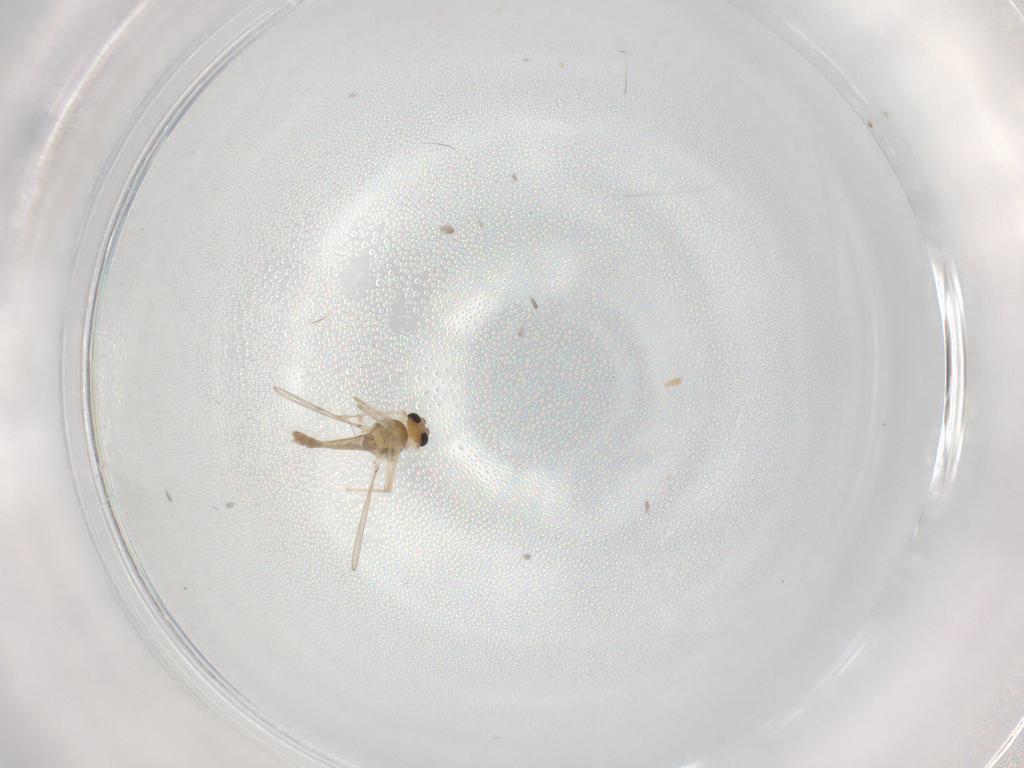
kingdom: Animalia
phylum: Arthropoda
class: Insecta
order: Diptera
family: Chironomidae
